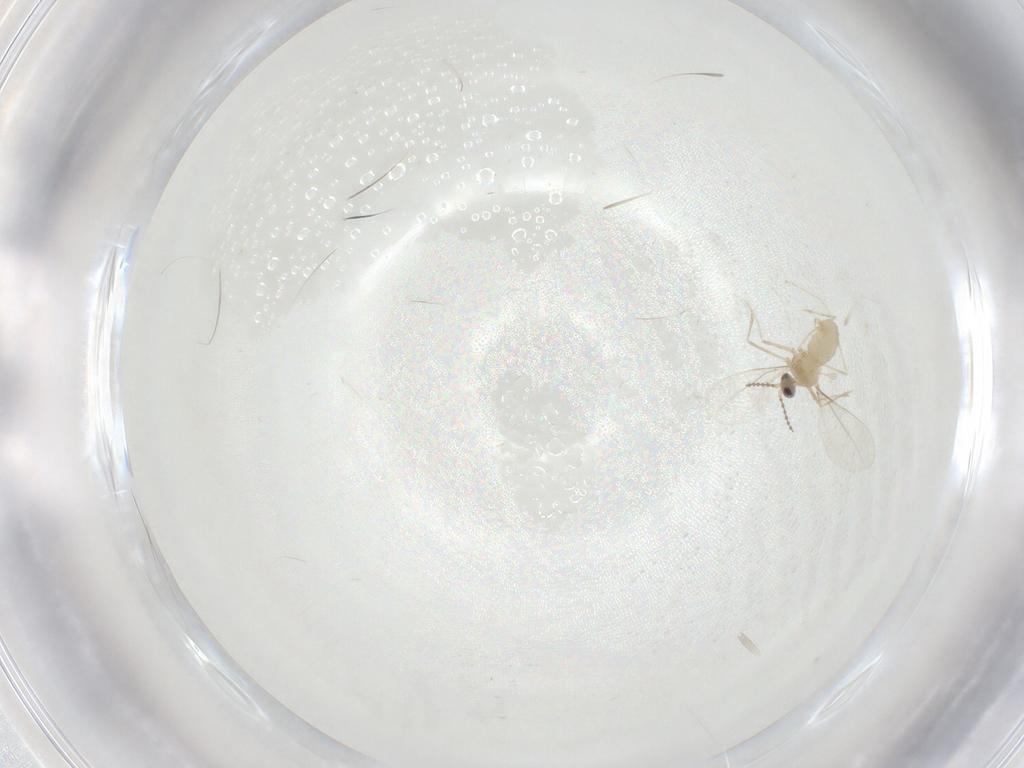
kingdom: Animalia
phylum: Arthropoda
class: Insecta
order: Diptera
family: Cecidomyiidae
